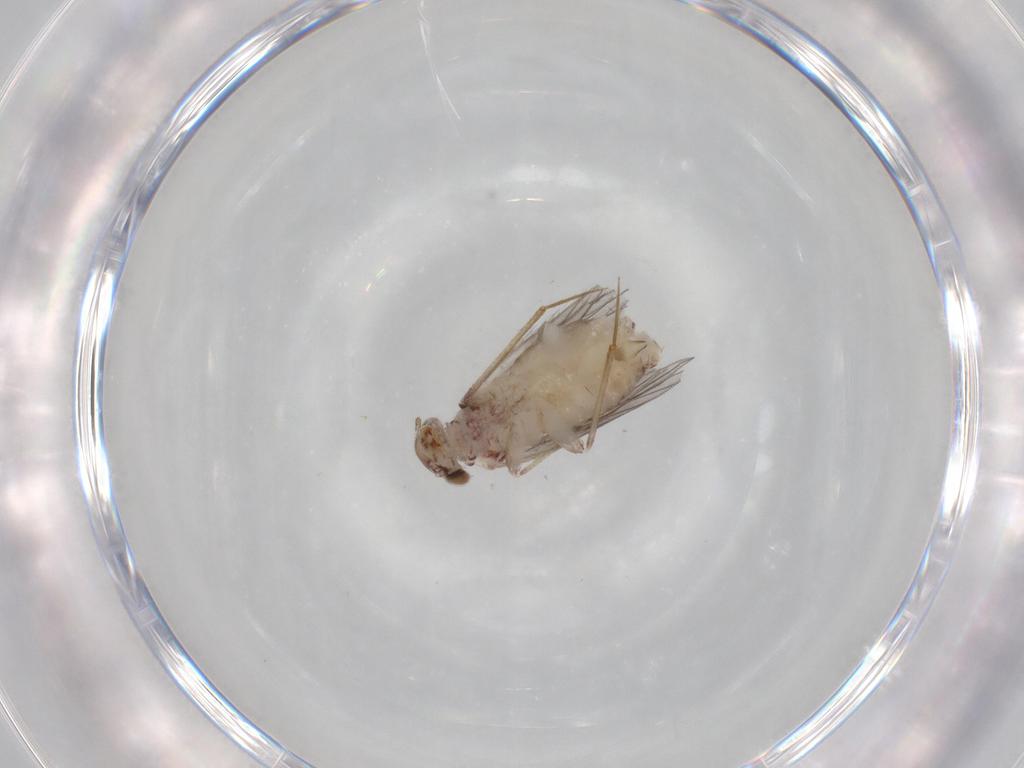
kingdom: Animalia
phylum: Arthropoda
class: Insecta
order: Psocodea
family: Lepidopsocidae
